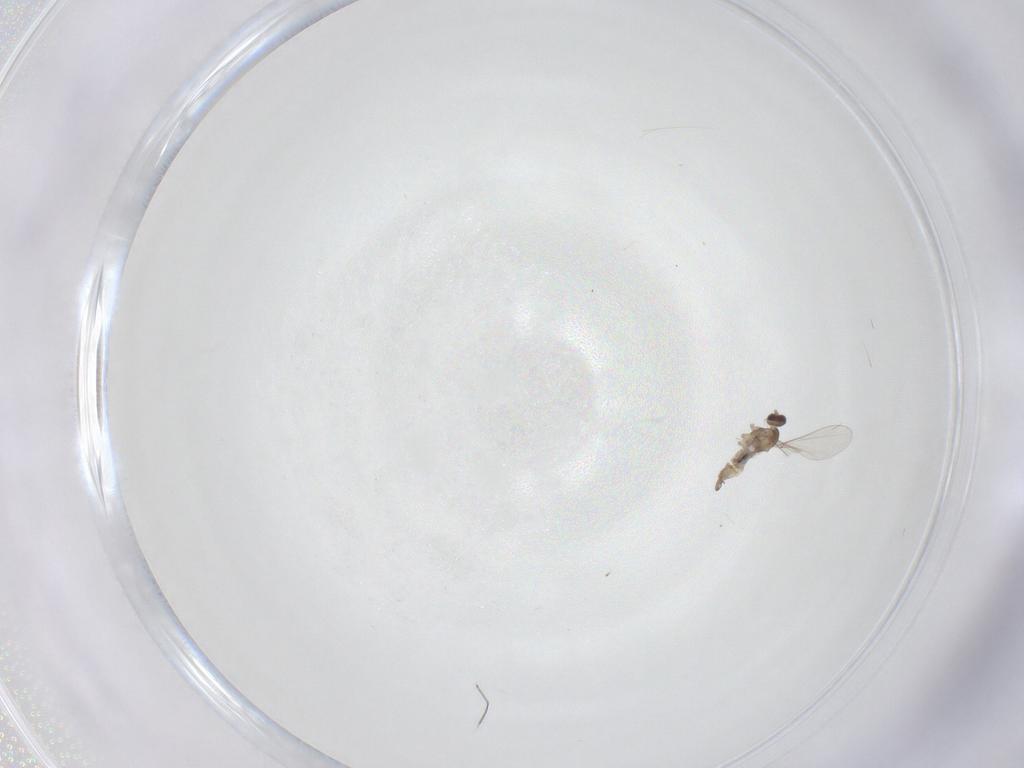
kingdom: Animalia
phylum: Arthropoda
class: Insecta
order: Diptera
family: Cecidomyiidae
